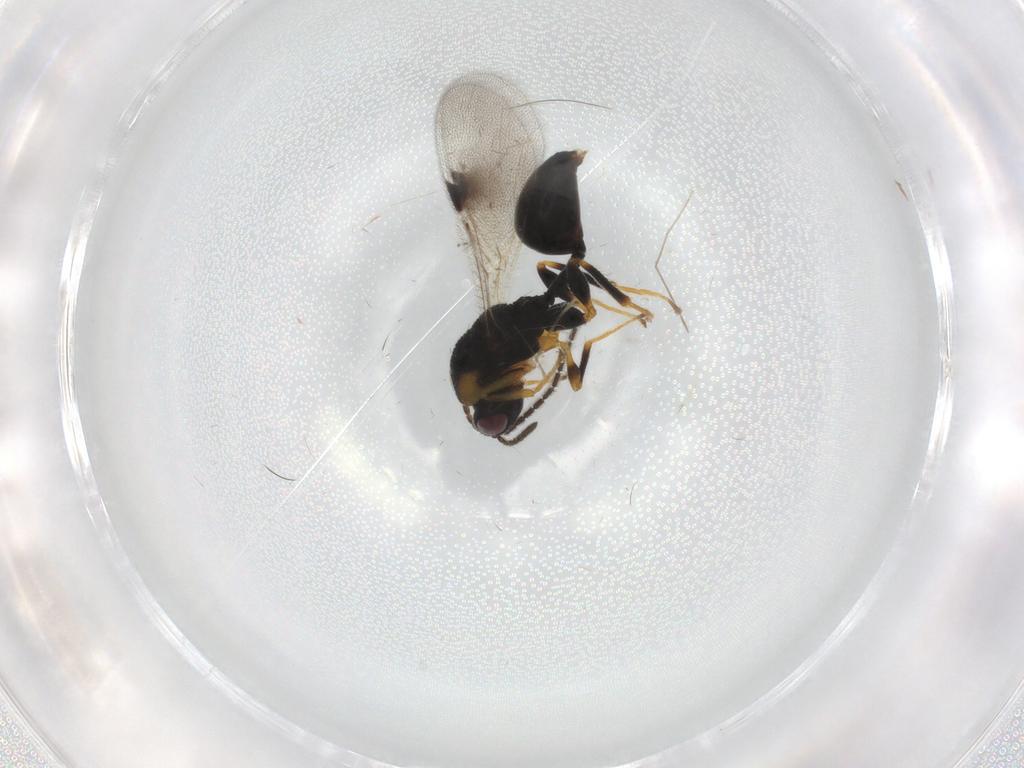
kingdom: Animalia
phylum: Arthropoda
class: Insecta
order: Hymenoptera
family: Eurytomidae
